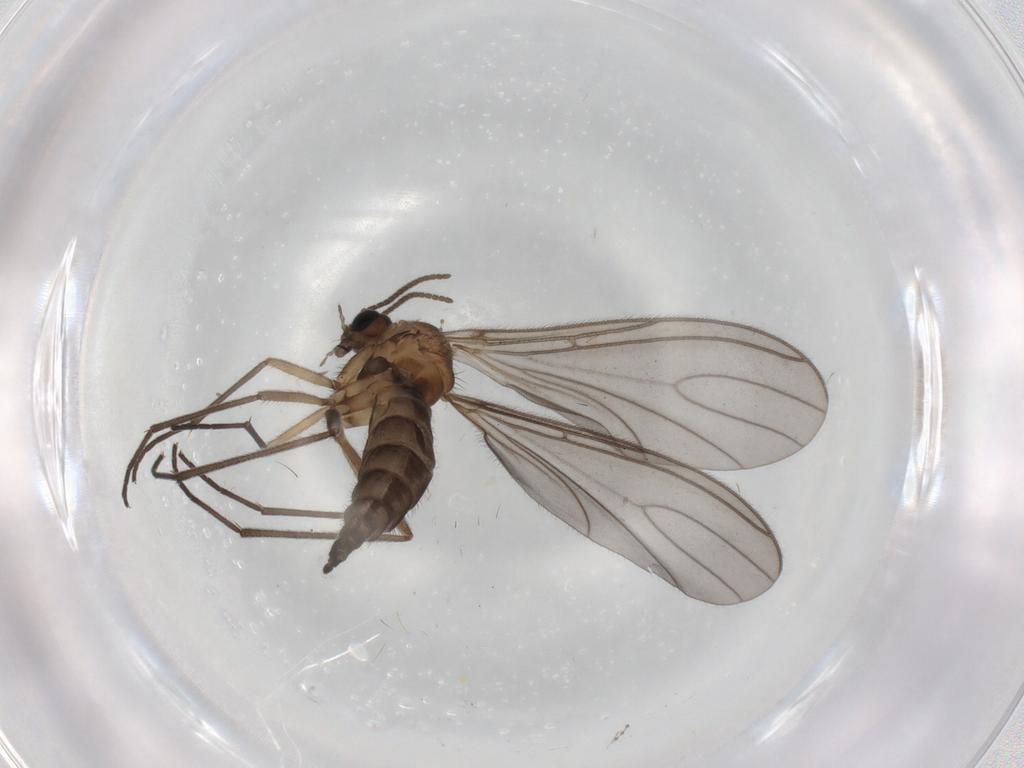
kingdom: Animalia
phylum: Arthropoda
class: Insecta
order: Diptera
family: Sciaridae
